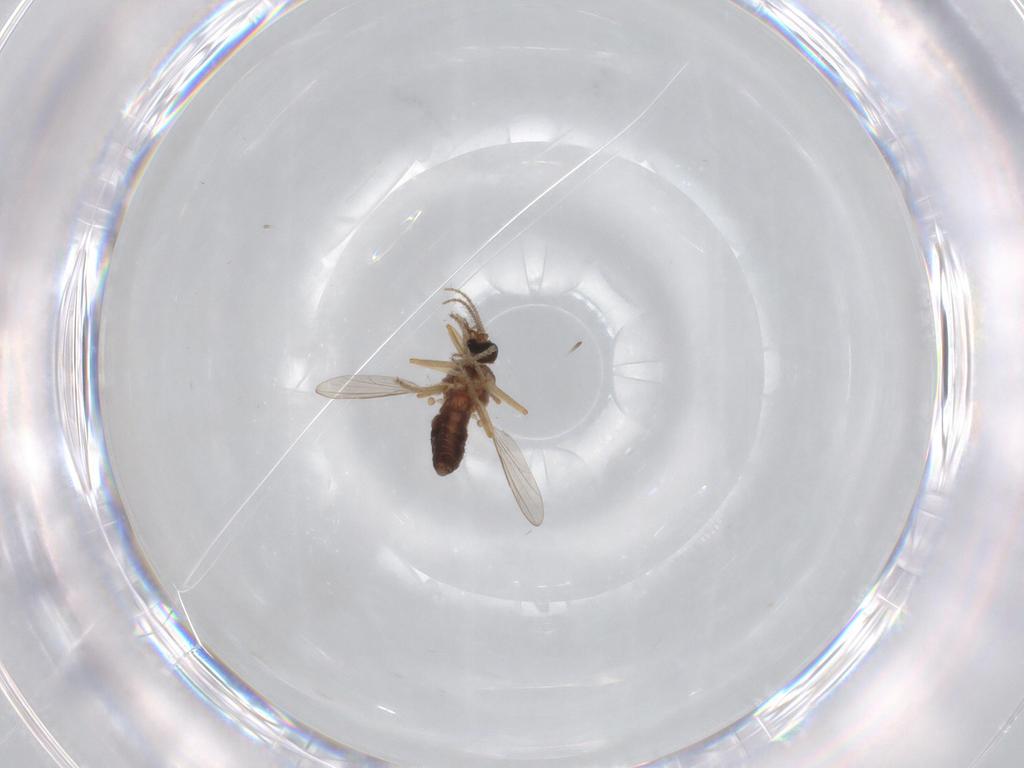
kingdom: Animalia
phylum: Arthropoda
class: Insecta
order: Diptera
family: Ceratopogonidae
